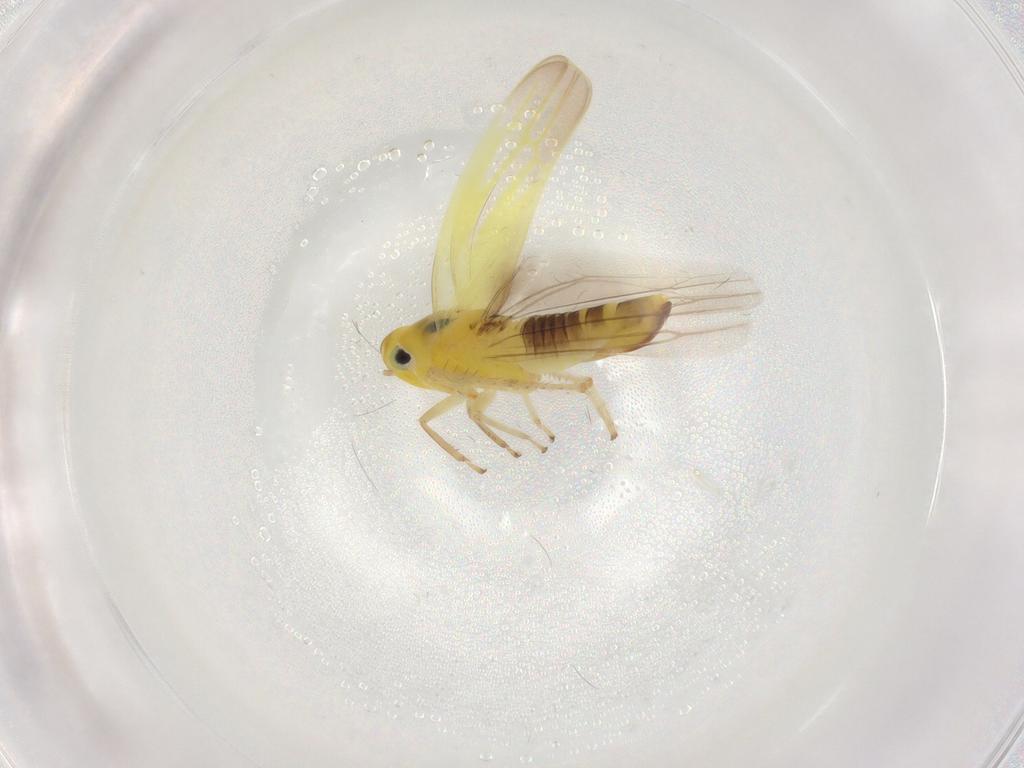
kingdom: Animalia
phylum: Arthropoda
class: Insecta
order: Hemiptera
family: Cicadellidae
